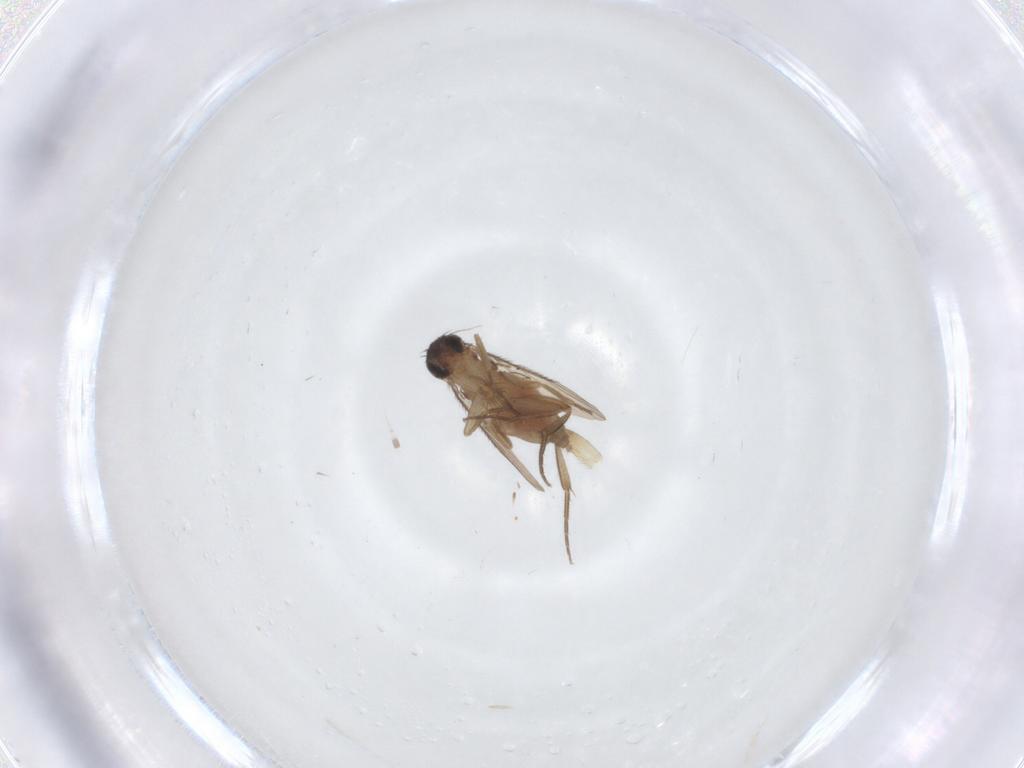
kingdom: Animalia
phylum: Arthropoda
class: Insecta
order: Diptera
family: Phoridae
